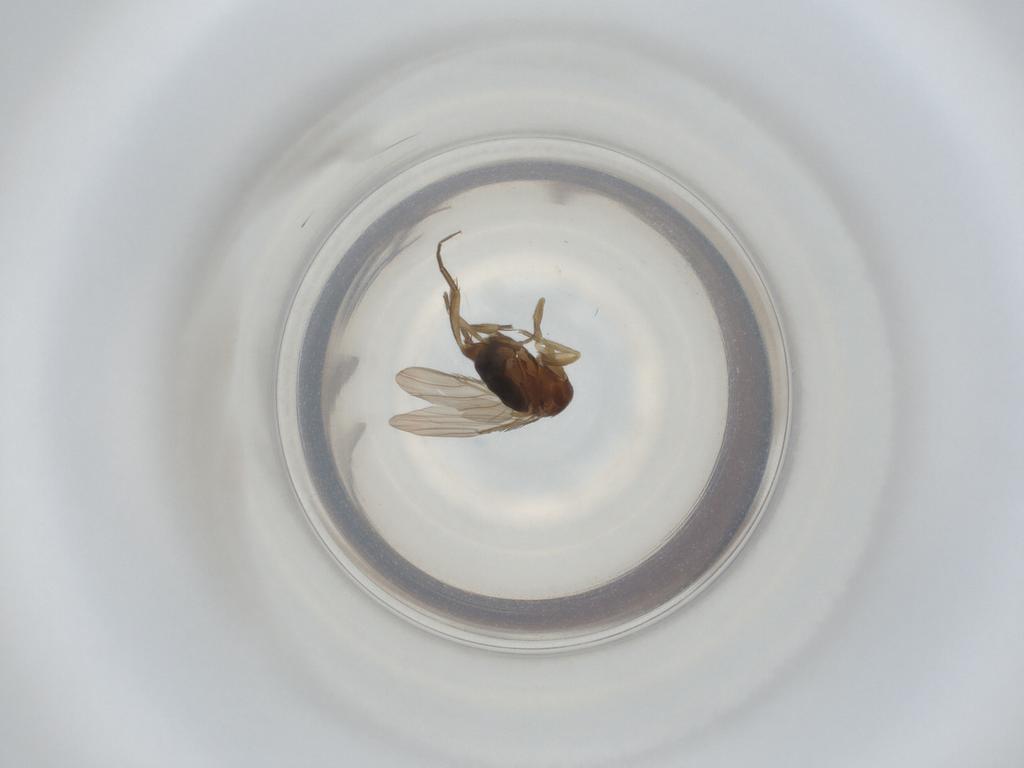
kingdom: Animalia
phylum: Arthropoda
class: Insecta
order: Diptera
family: Phoridae
